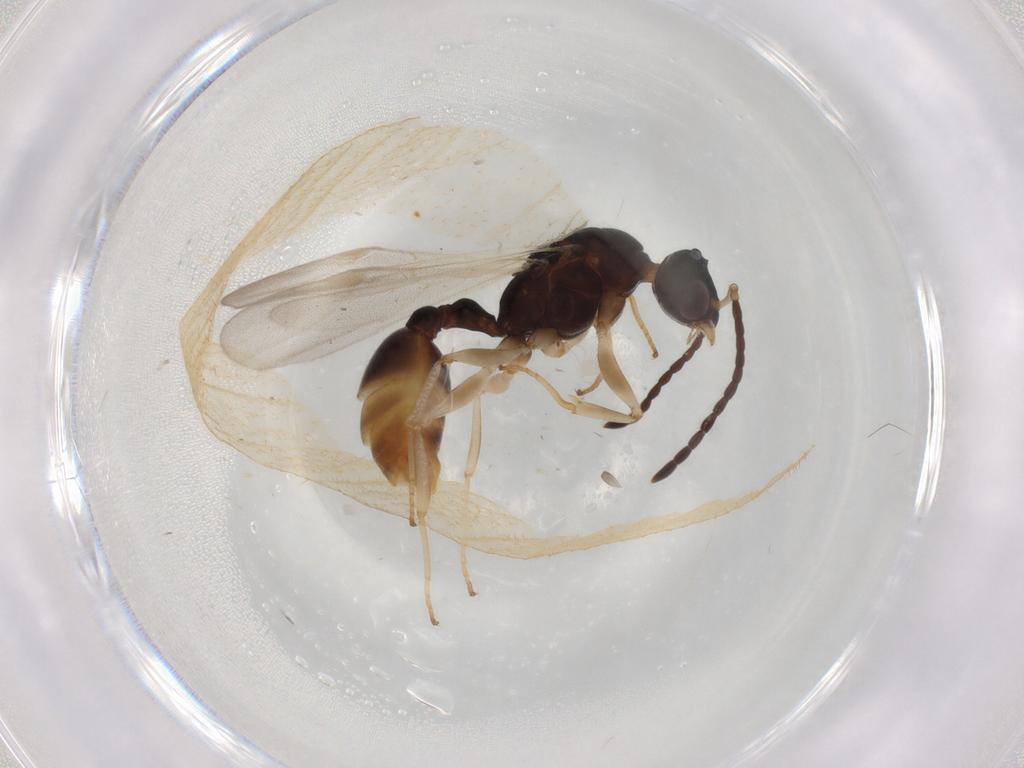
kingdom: Animalia
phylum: Arthropoda
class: Insecta
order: Hymenoptera
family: Formicidae
